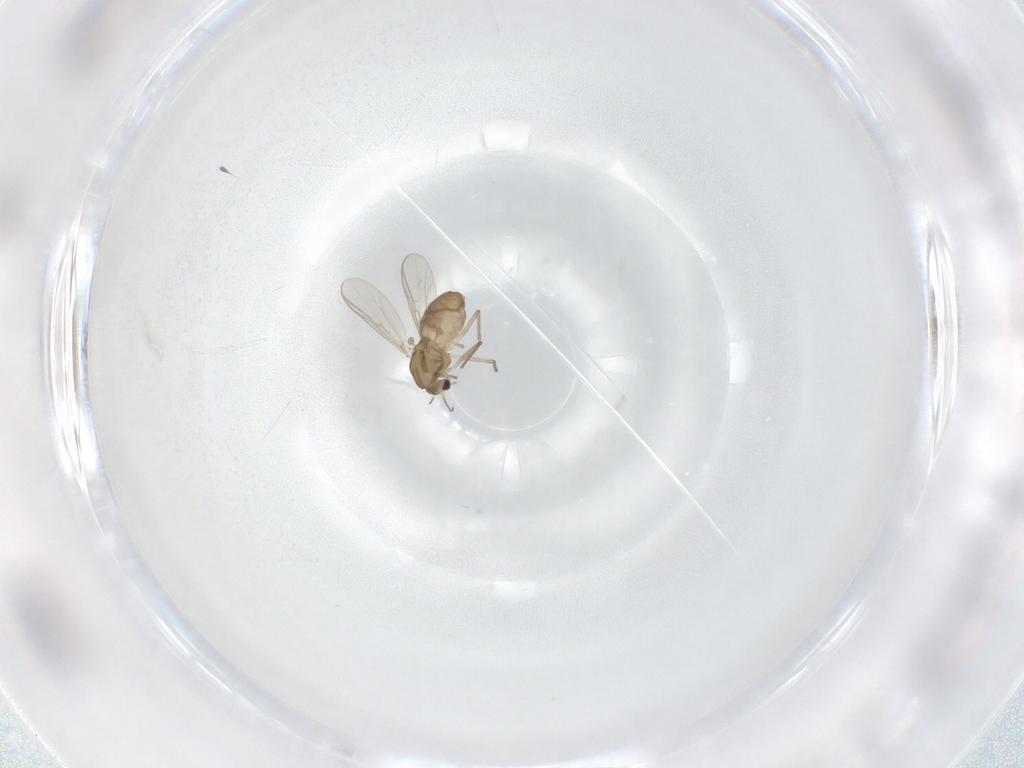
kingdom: Animalia
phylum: Arthropoda
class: Insecta
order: Diptera
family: Chironomidae
